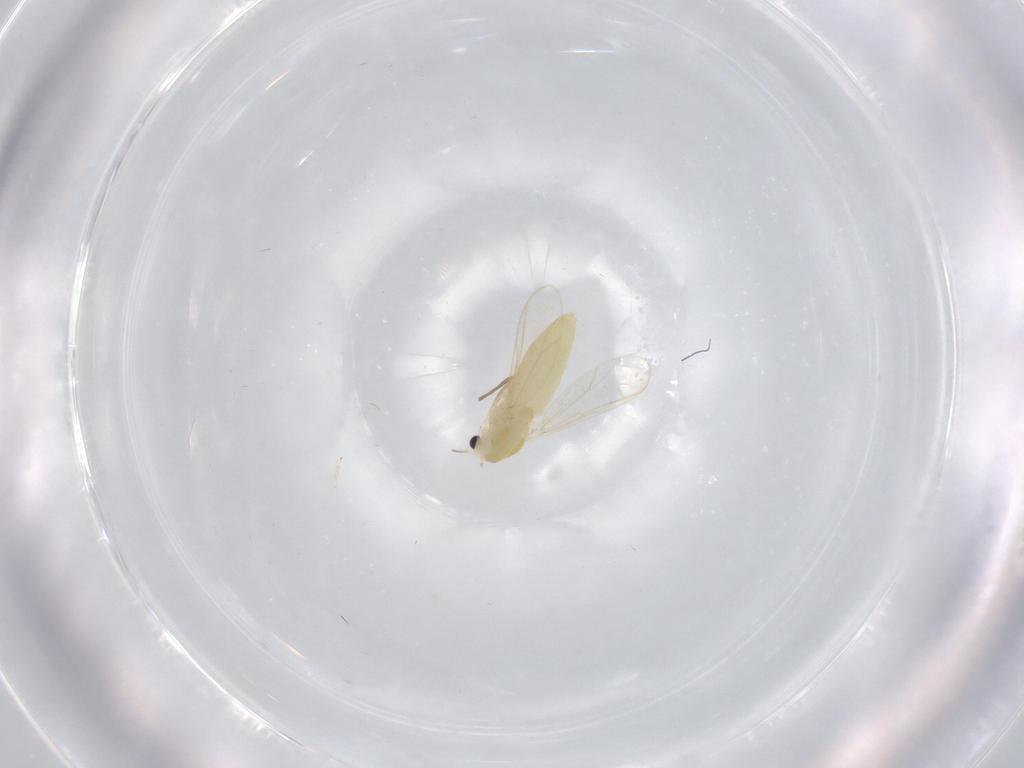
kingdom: Animalia
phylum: Arthropoda
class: Insecta
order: Diptera
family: Chironomidae
